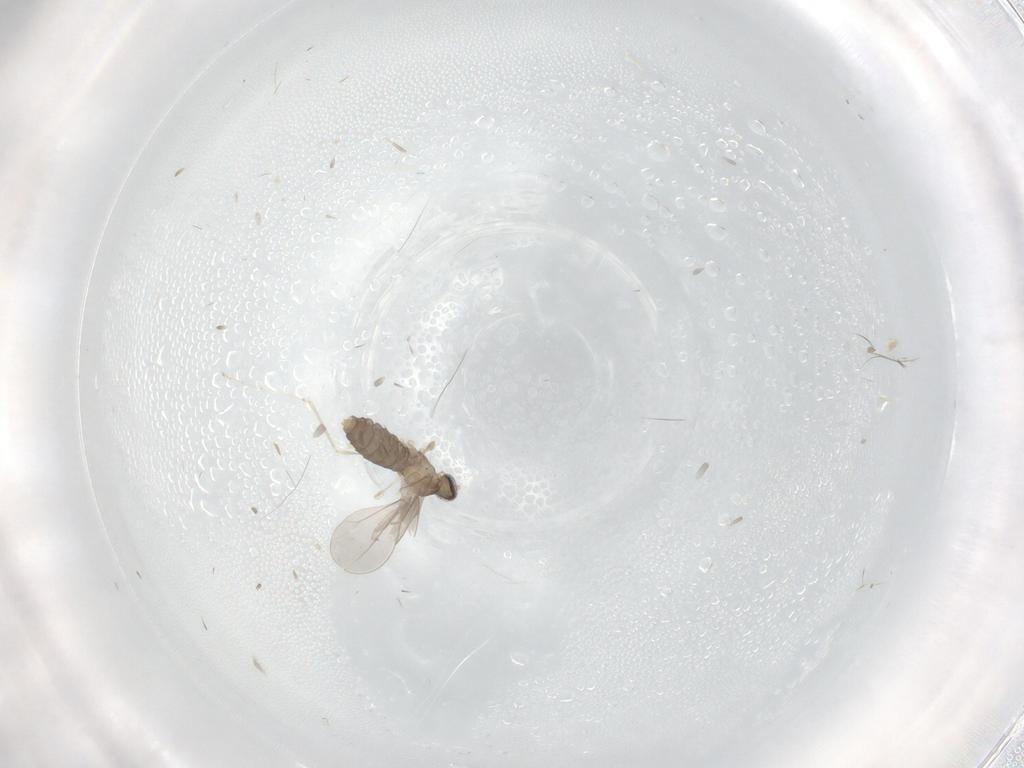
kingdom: Animalia
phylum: Arthropoda
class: Insecta
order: Diptera
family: Cecidomyiidae
